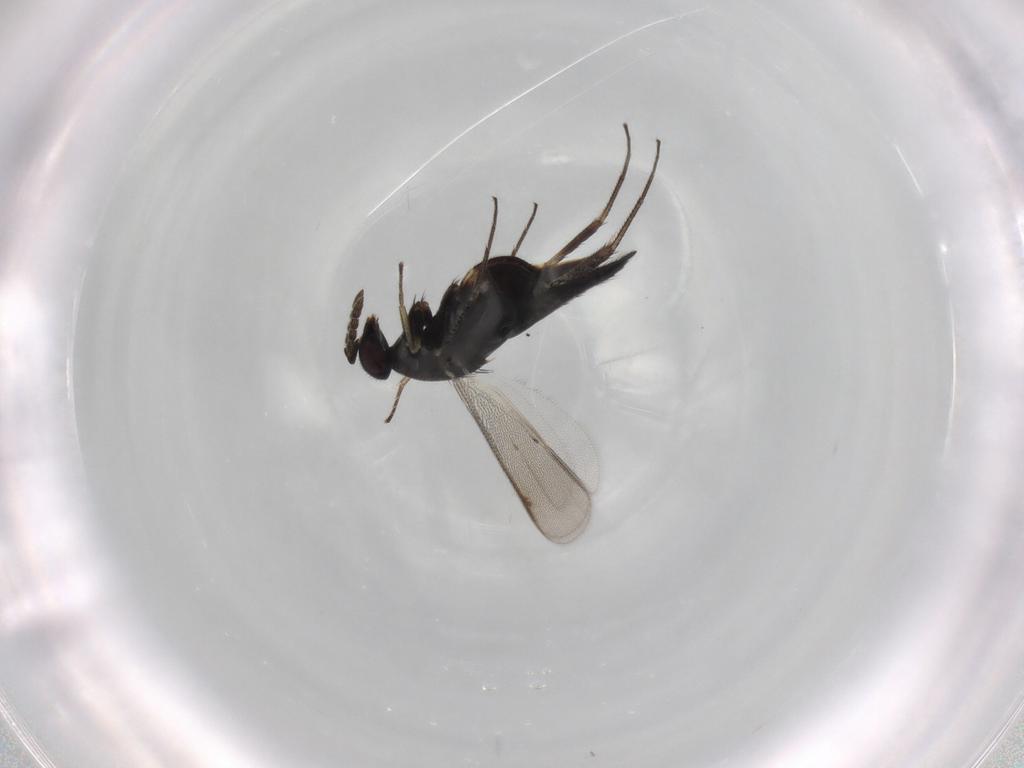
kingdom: Animalia
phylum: Arthropoda
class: Insecta
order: Hymenoptera
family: Eulophidae
